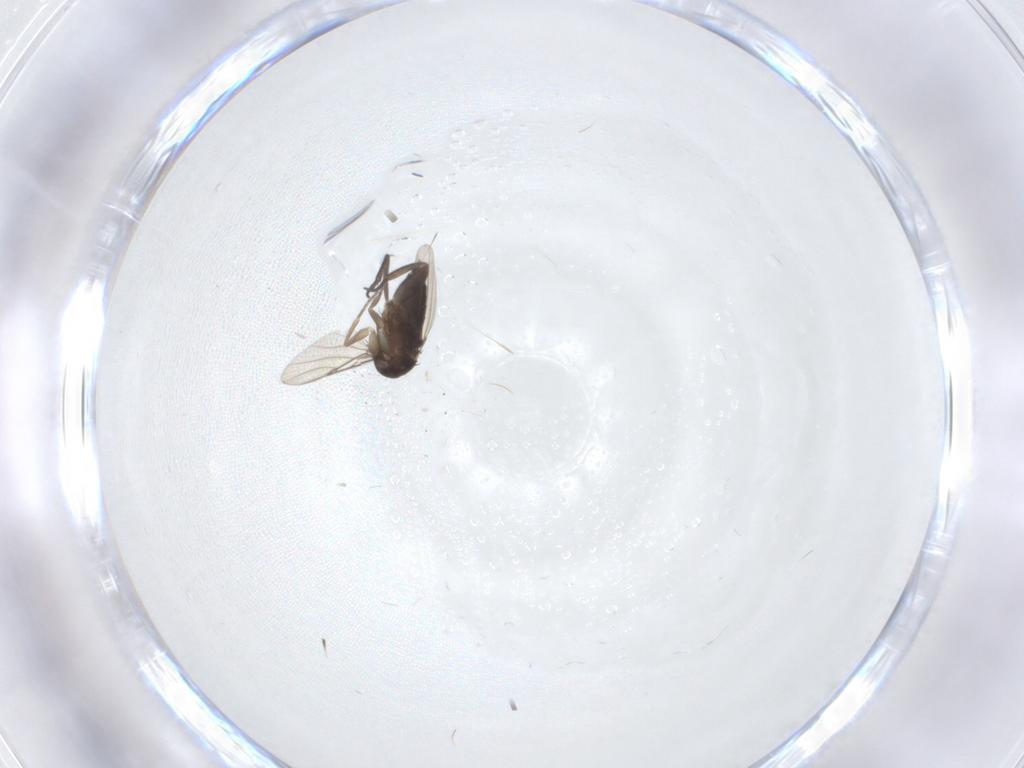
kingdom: Animalia
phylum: Arthropoda
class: Insecta
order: Diptera
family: Phoridae
